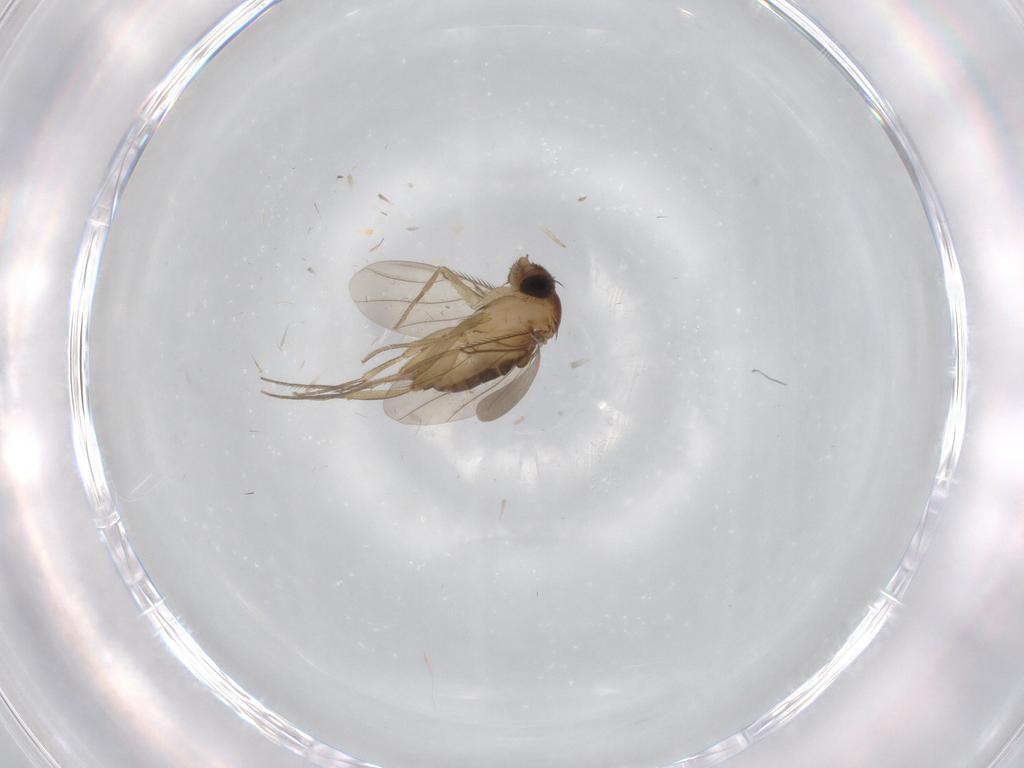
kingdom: Animalia
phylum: Arthropoda
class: Insecta
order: Diptera
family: Phoridae
